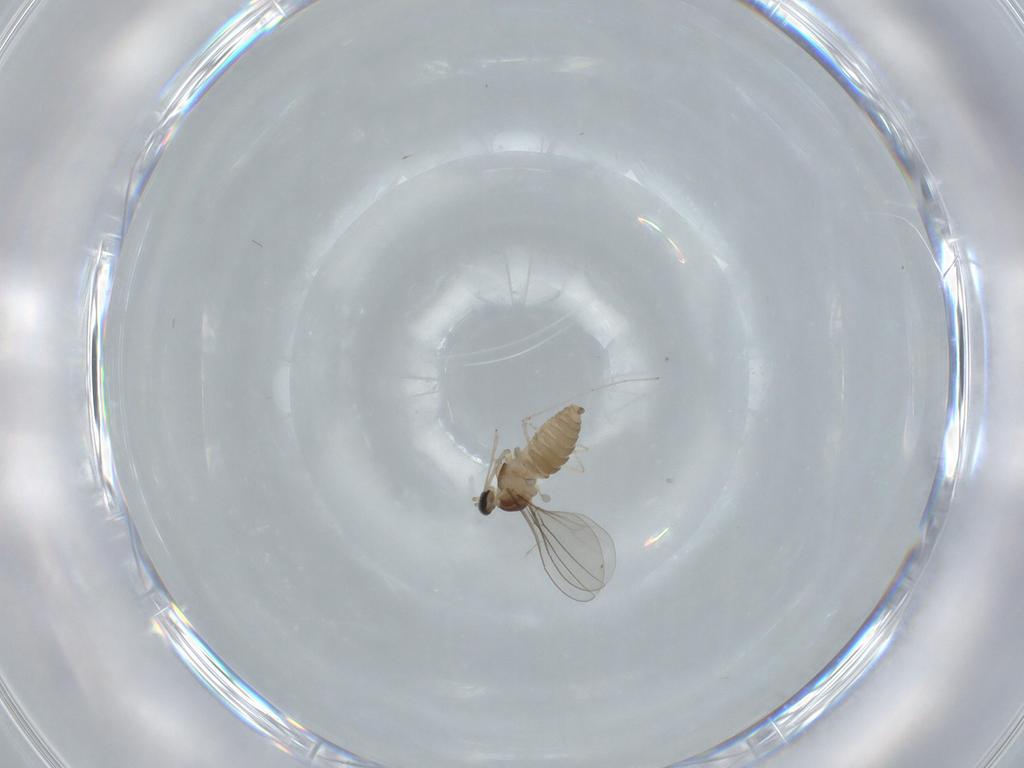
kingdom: Animalia
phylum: Arthropoda
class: Insecta
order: Diptera
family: Cecidomyiidae
